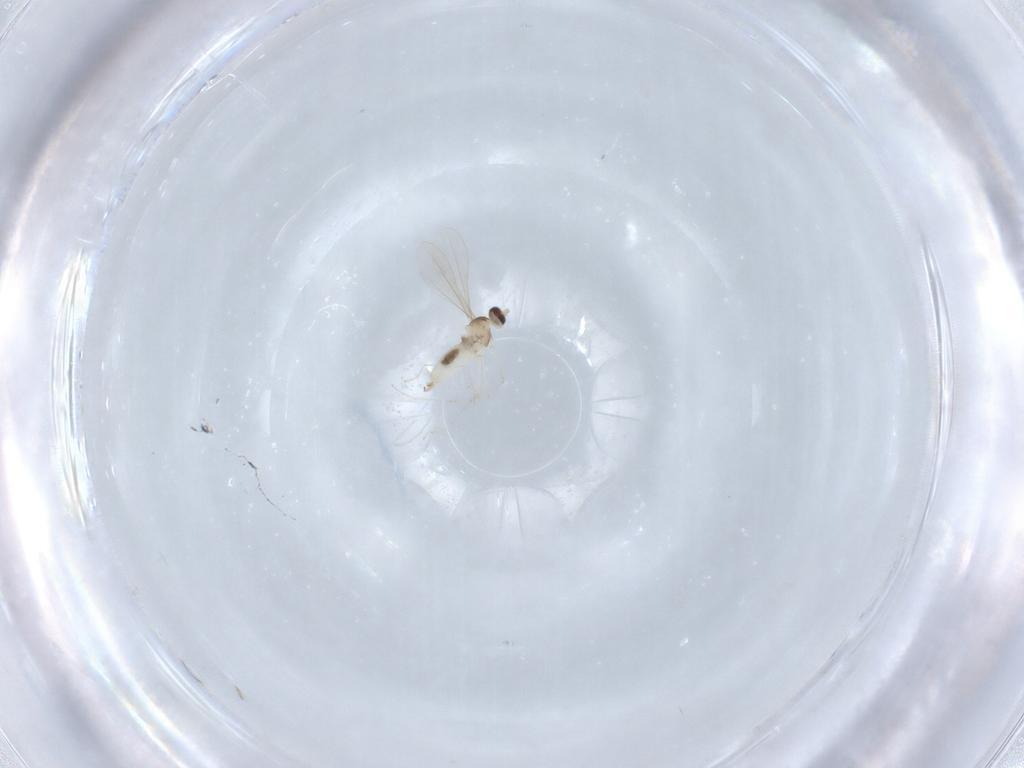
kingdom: Animalia
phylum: Arthropoda
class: Insecta
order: Diptera
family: Cecidomyiidae
